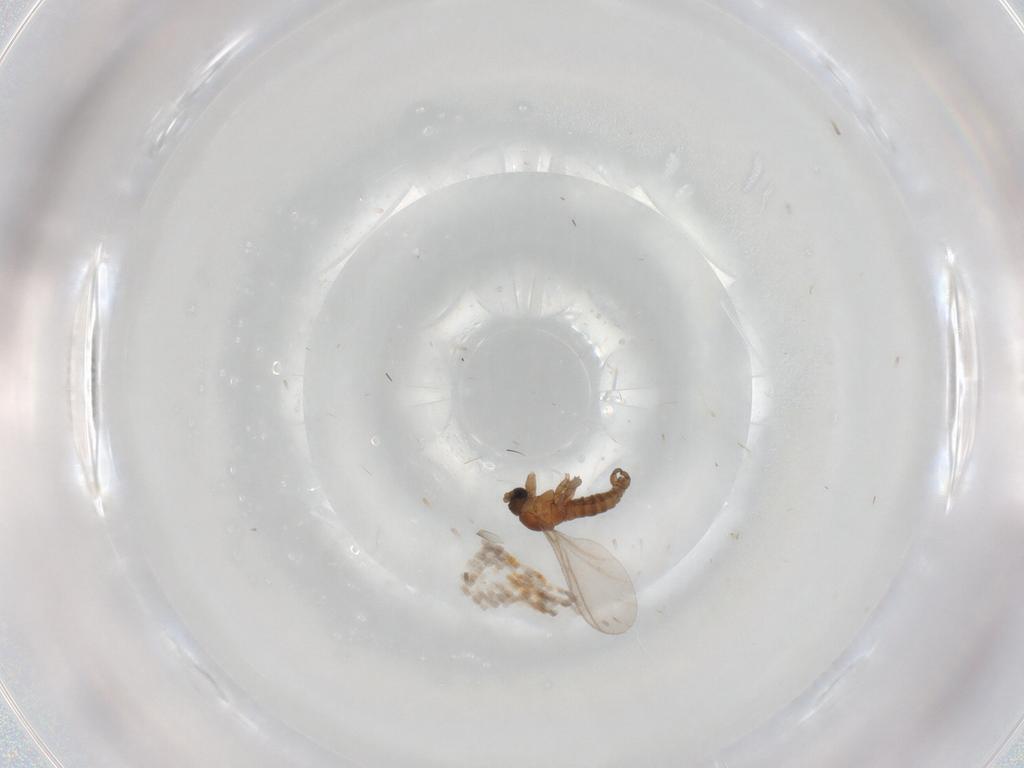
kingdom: Animalia
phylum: Arthropoda
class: Insecta
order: Diptera
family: Sciaridae
